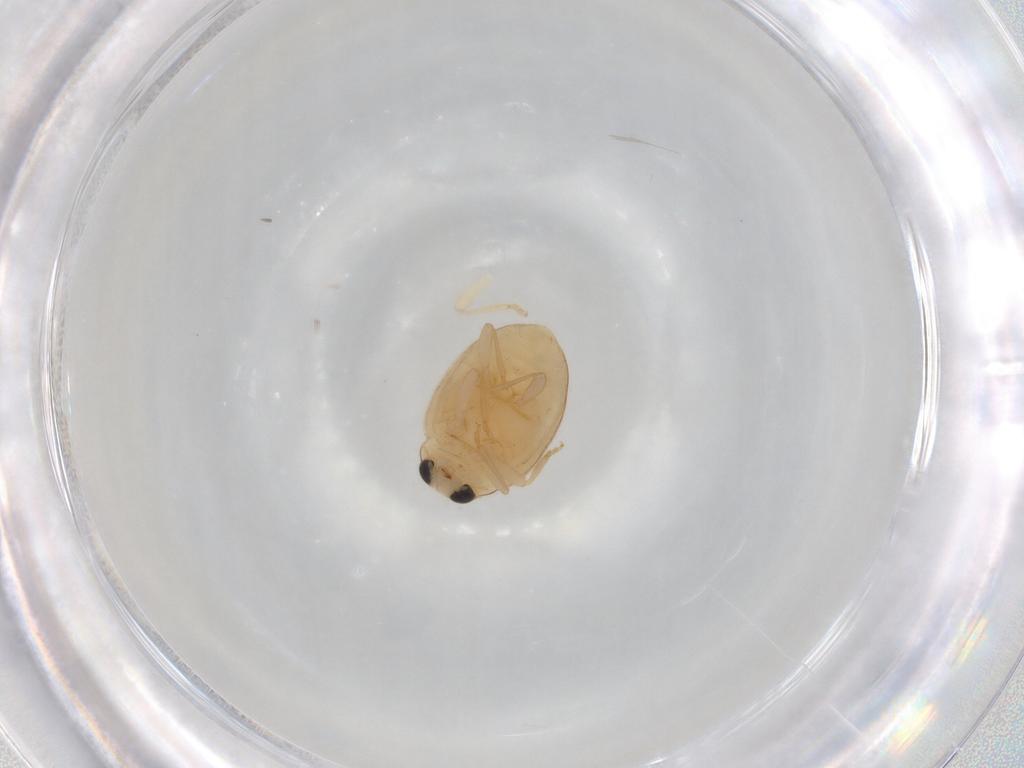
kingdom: Animalia
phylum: Arthropoda
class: Insecta
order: Coleoptera
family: Coccinellidae
